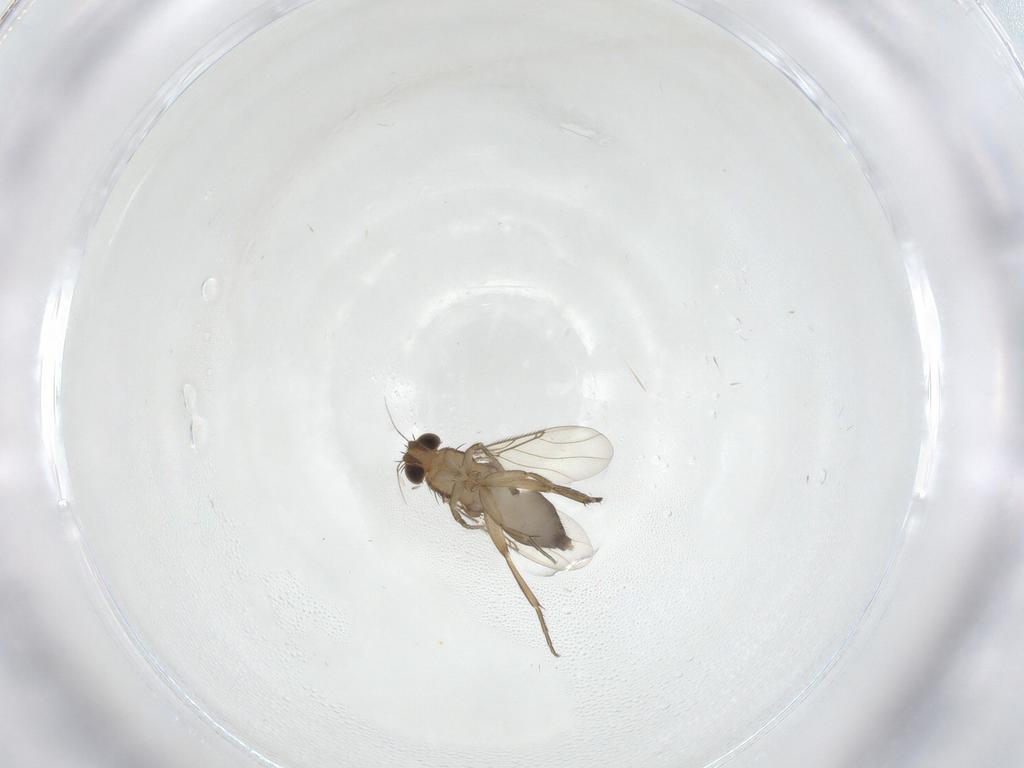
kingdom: Animalia
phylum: Arthropoda
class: Insecta
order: Diptera
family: Phoridae
